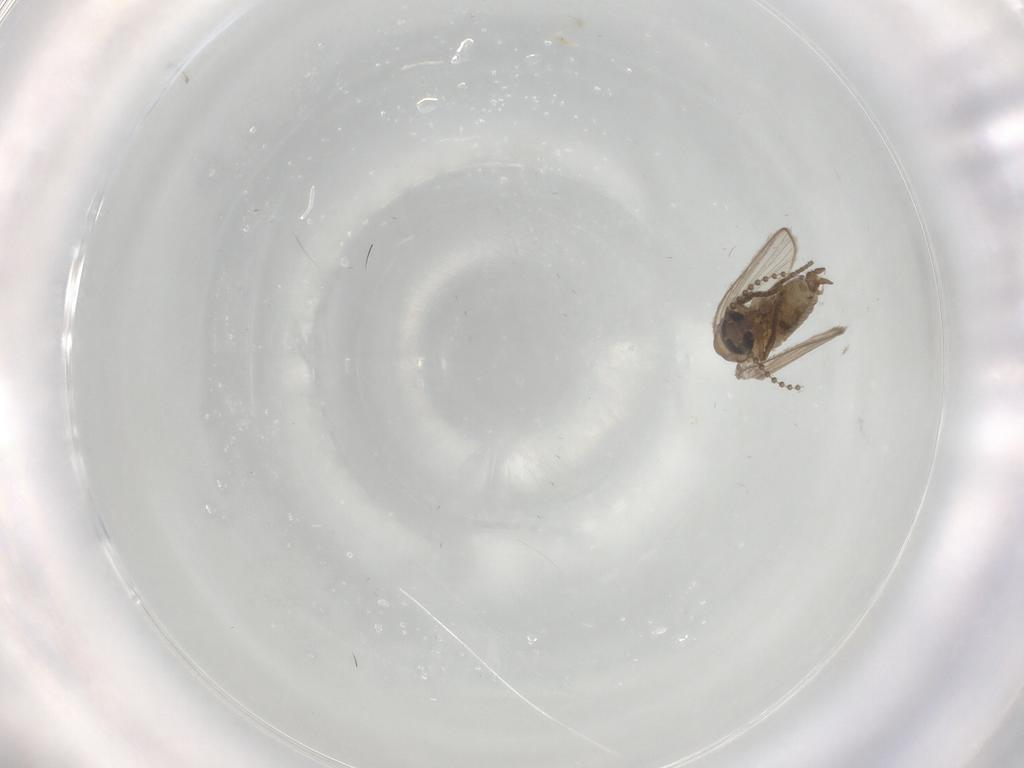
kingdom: Animalia
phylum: Arthropoda
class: Insecta
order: Diptera
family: Psychodidae
